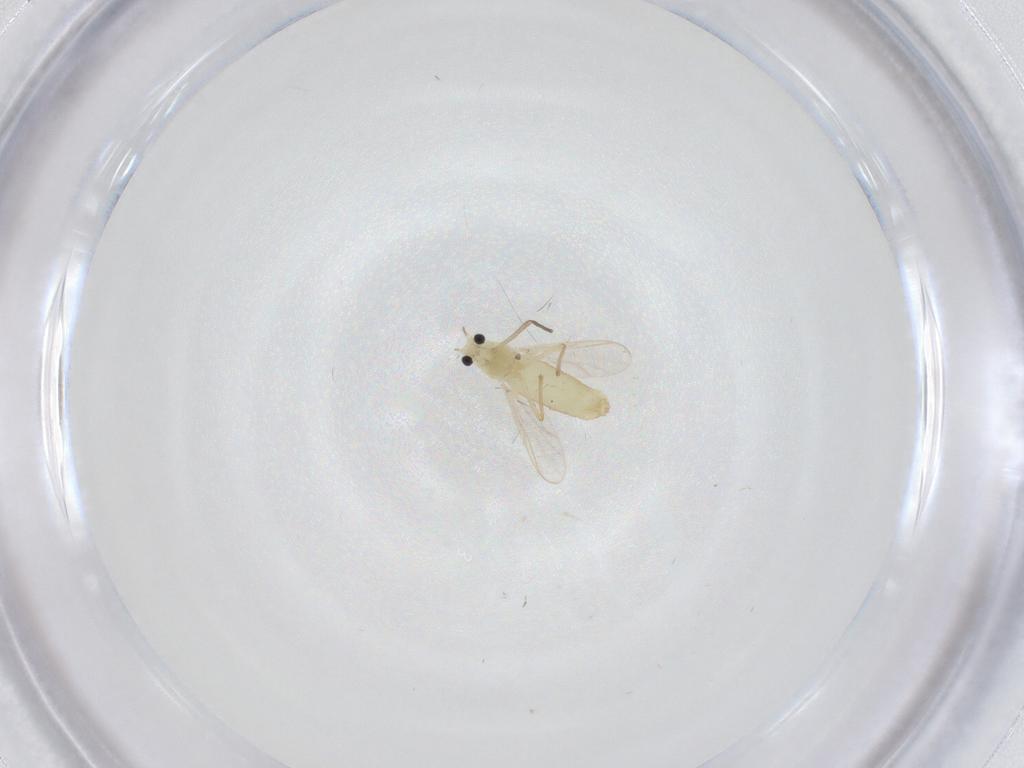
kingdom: Animalia
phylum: Arthropoda
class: Insecta
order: Diptera
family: Chironomidae
